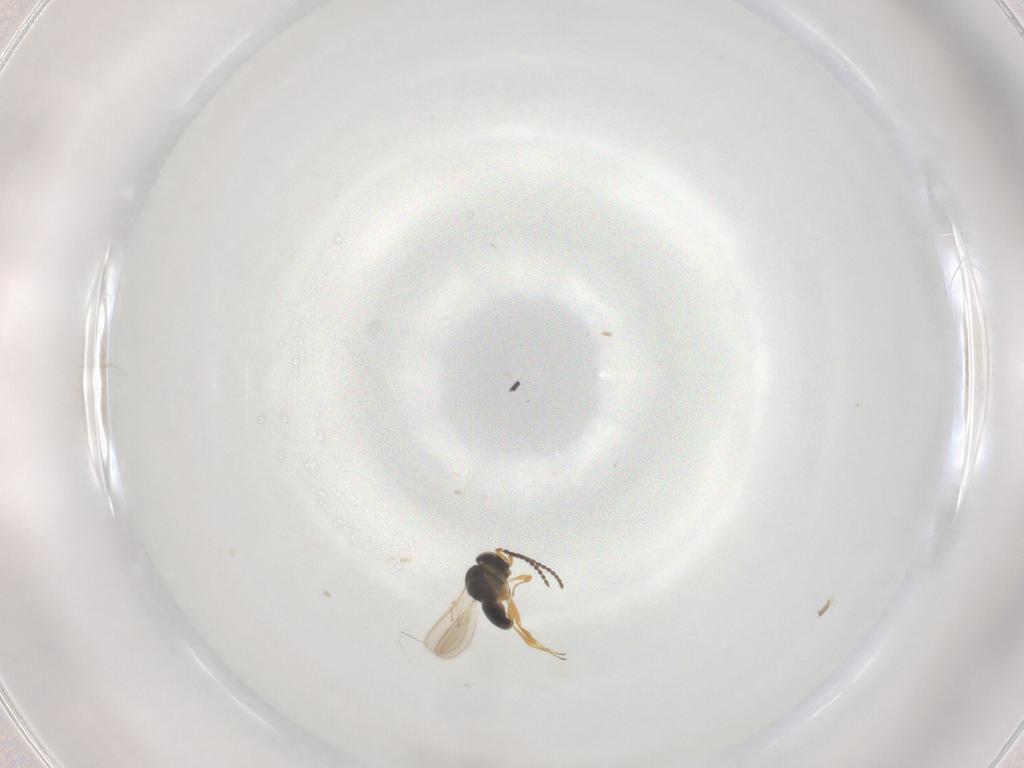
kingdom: Animalia
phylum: Arthropoda
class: Insecta
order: Hymenoptera
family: Scelionidae
